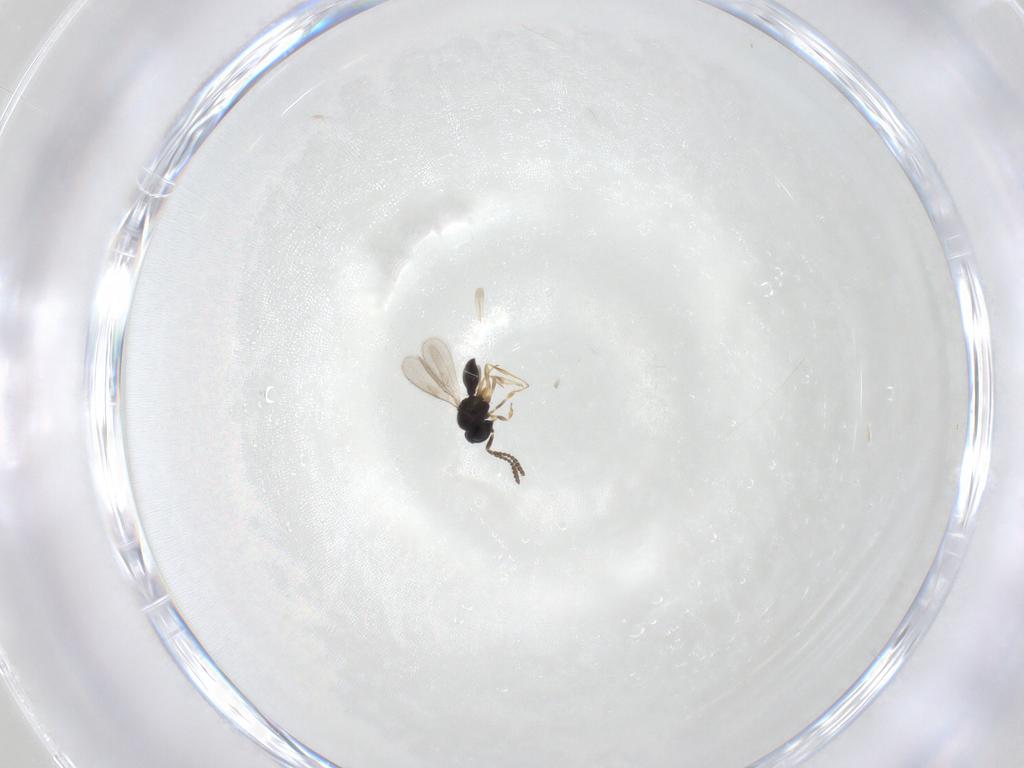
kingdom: Animalia
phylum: Arthropoda
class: Insecta
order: Hymenoptera
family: Scelionidae
